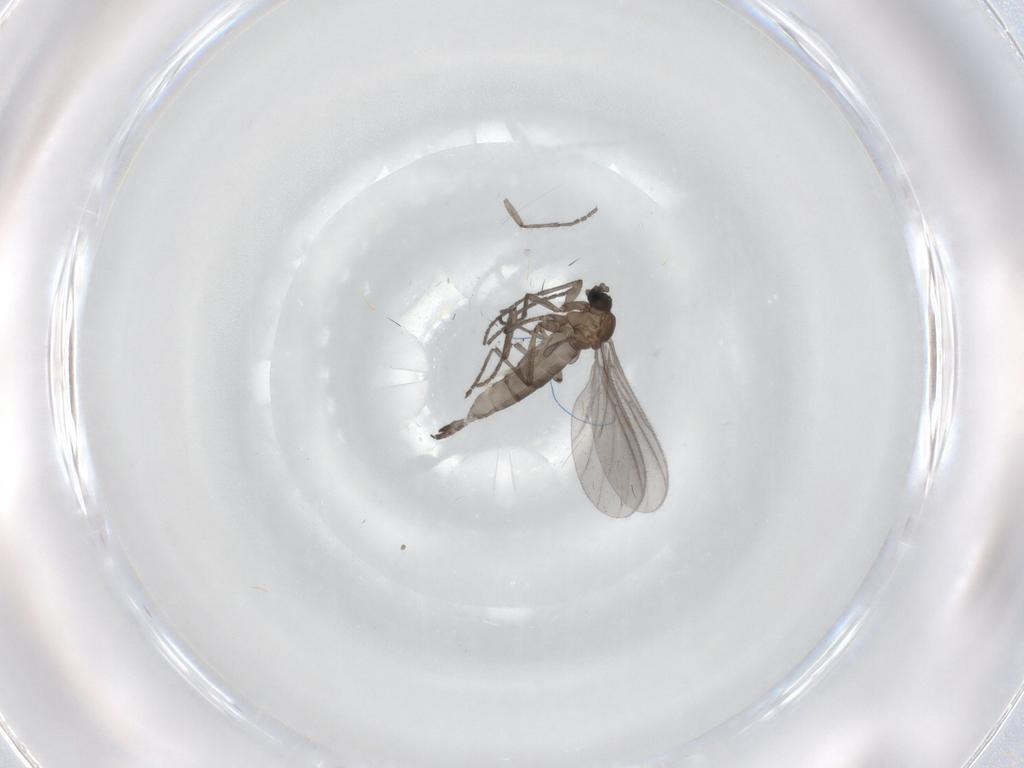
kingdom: Animalia
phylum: Arthropoda
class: Insecta
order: Diptera
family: Sciaridae
